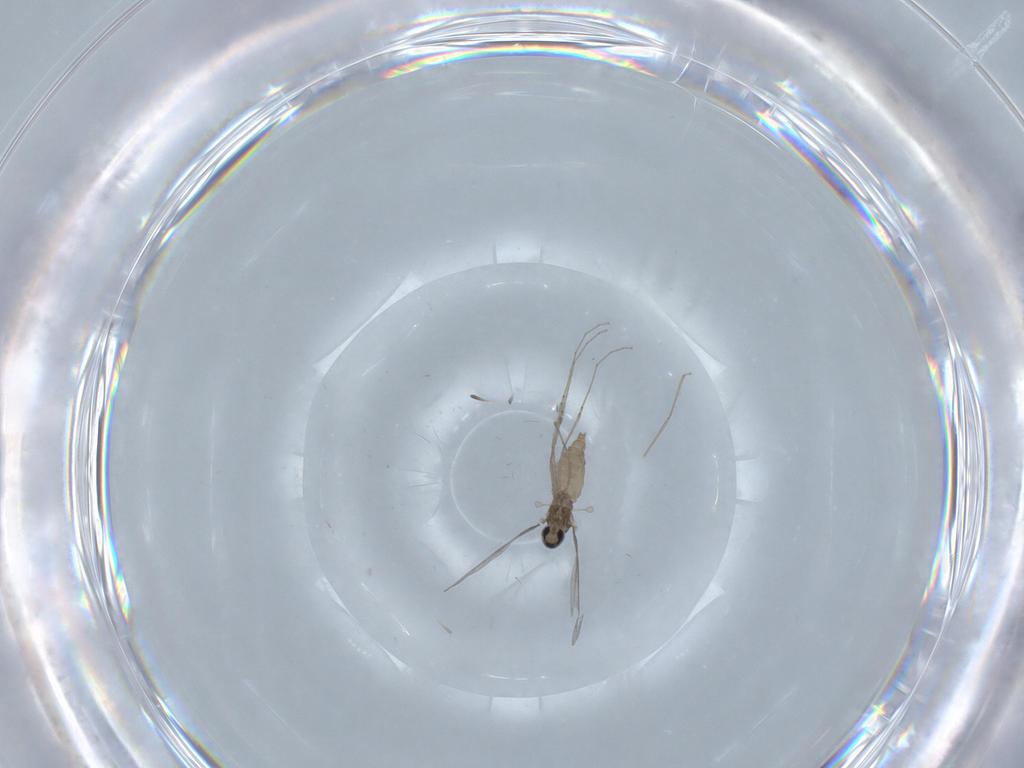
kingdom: Animalia
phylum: Arthropoda
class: Insecta
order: Diptera
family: Cecidomyiidae
